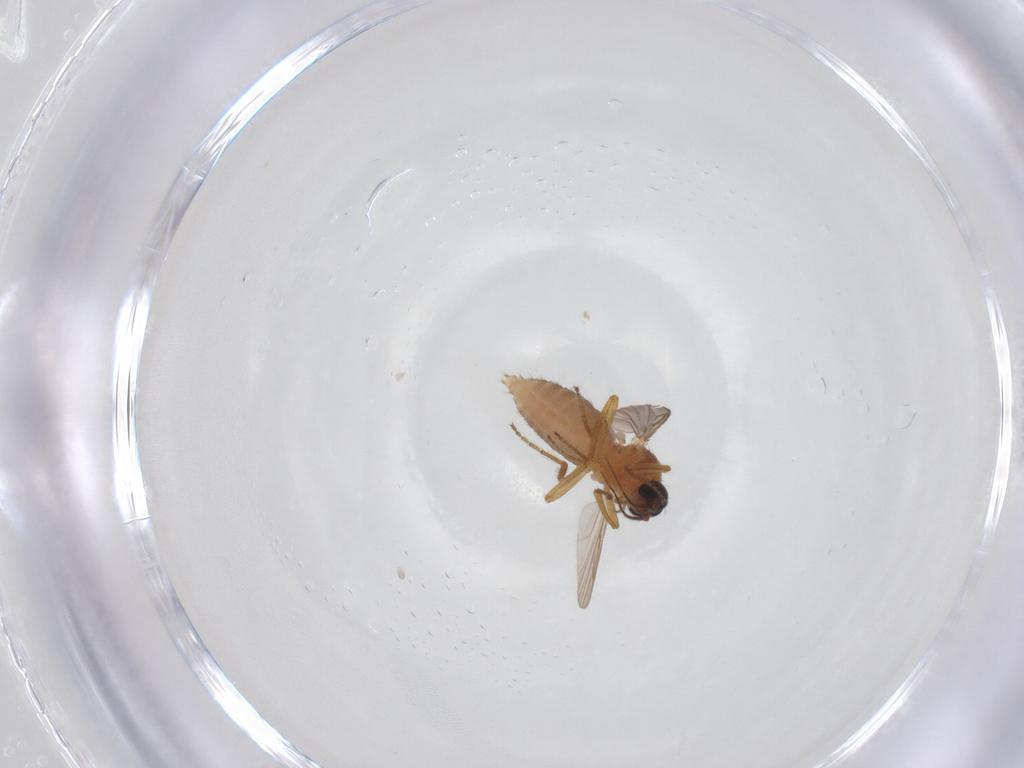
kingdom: Animalia
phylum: Arthropoda
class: Insecta
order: Diptera
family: Ceratopogonidae
